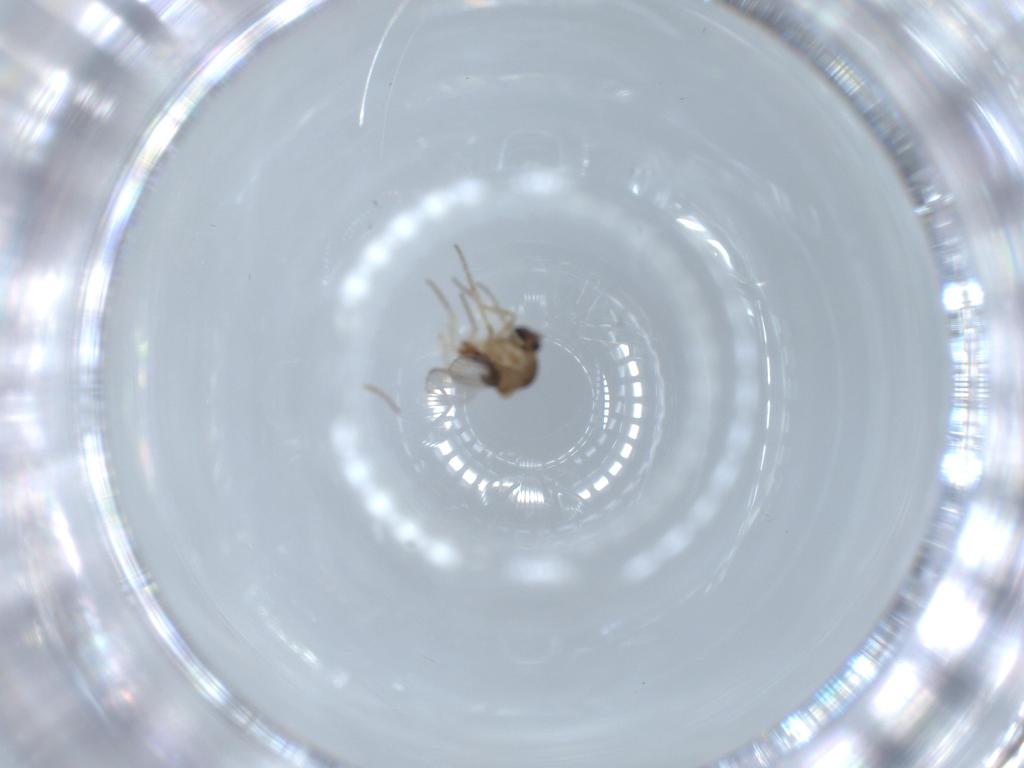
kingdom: Animalia
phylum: Arthropoda
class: Insecta
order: Diptera
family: Ceratopogonidae
